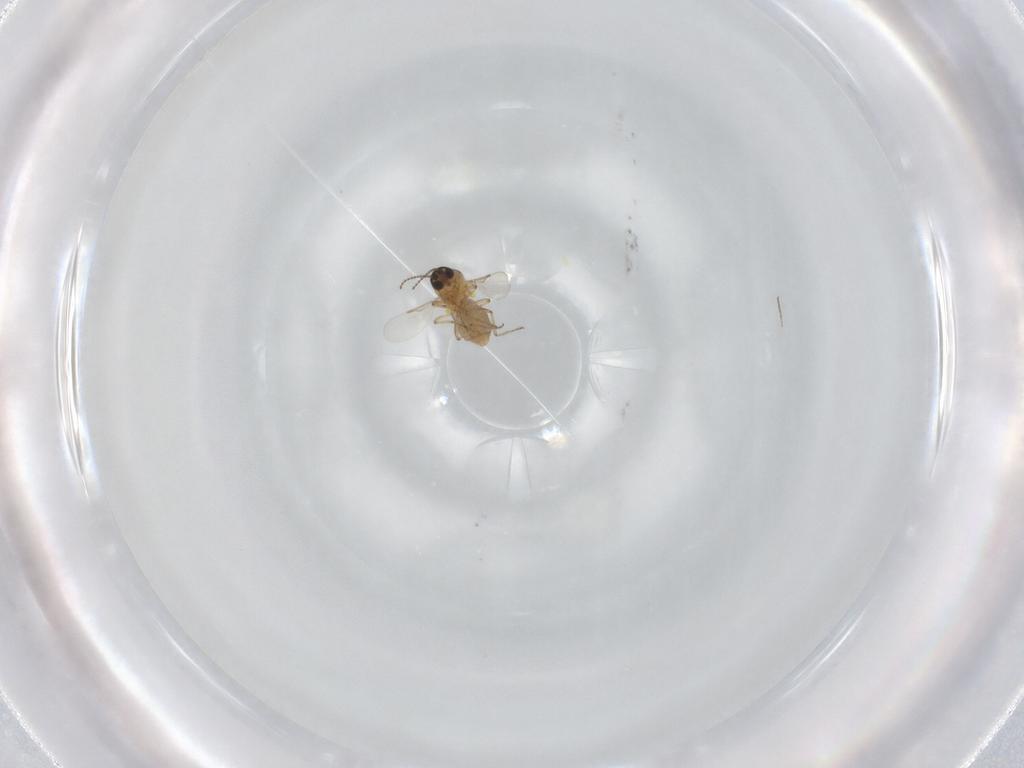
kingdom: Animalia
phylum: Arthropoda
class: Insecta
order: Diptera
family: Ceratopogonidae
